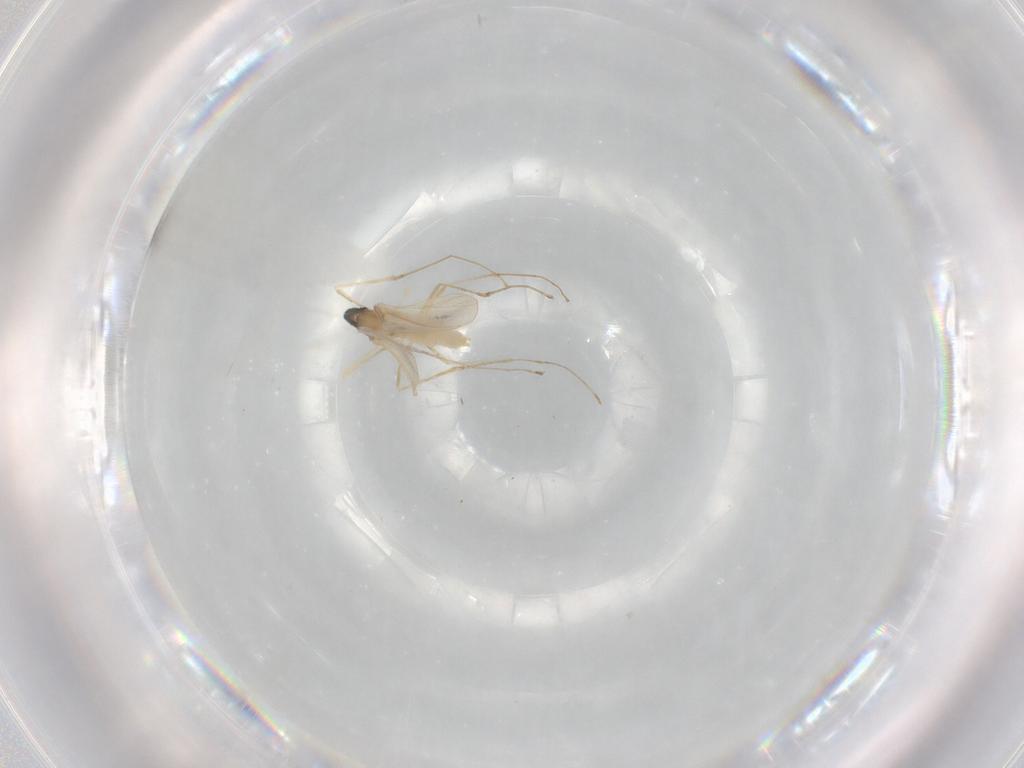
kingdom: Animalia
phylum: Arthropoda
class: Insecta
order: Diptera
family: Cecidomyiidae
